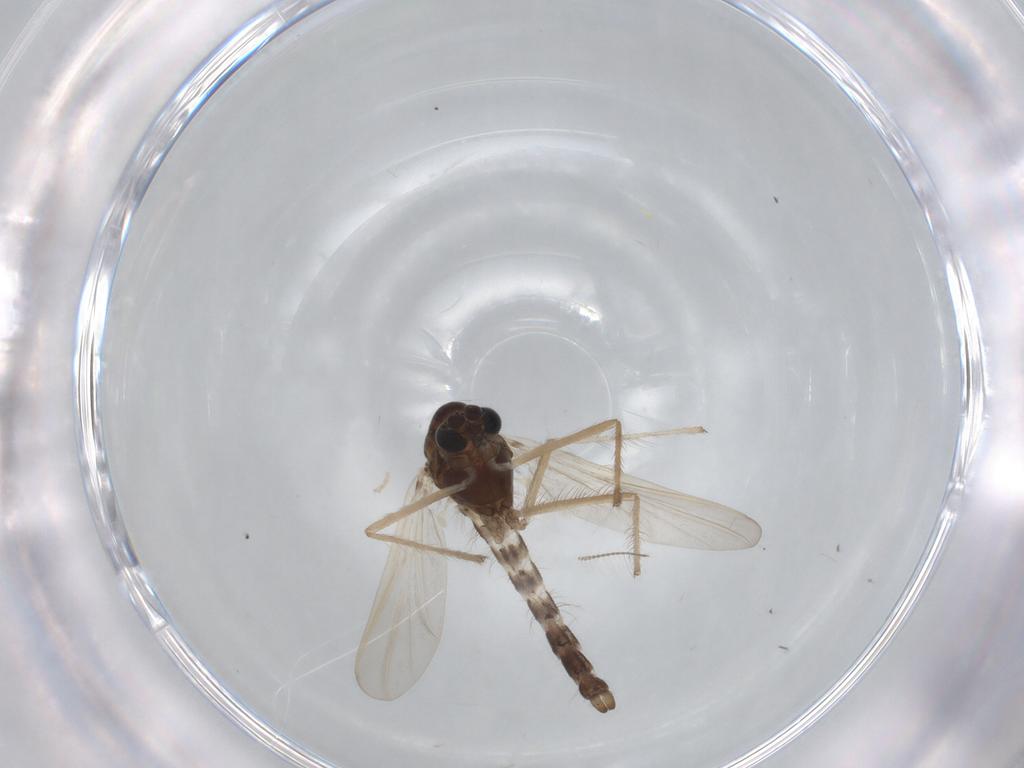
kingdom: Animalia
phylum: Arthropoda
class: Insecta
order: Diptera
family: Chironomidae
